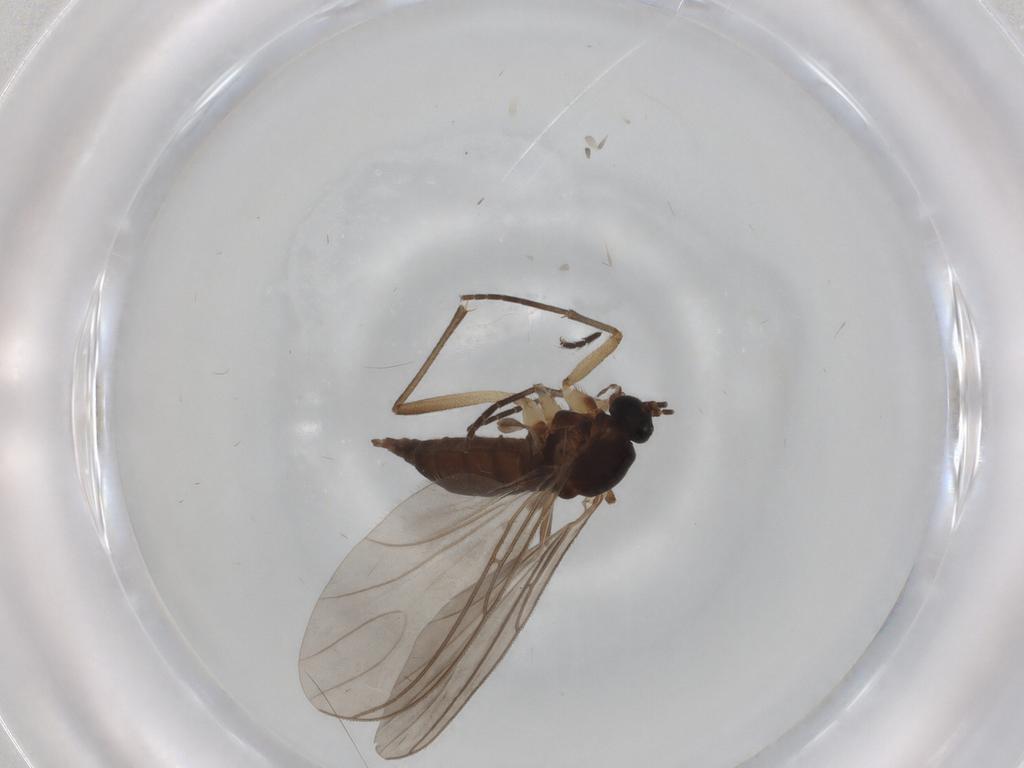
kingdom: Animalia
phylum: Arthropoda
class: Insecta
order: Diptera
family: Sciaridae
